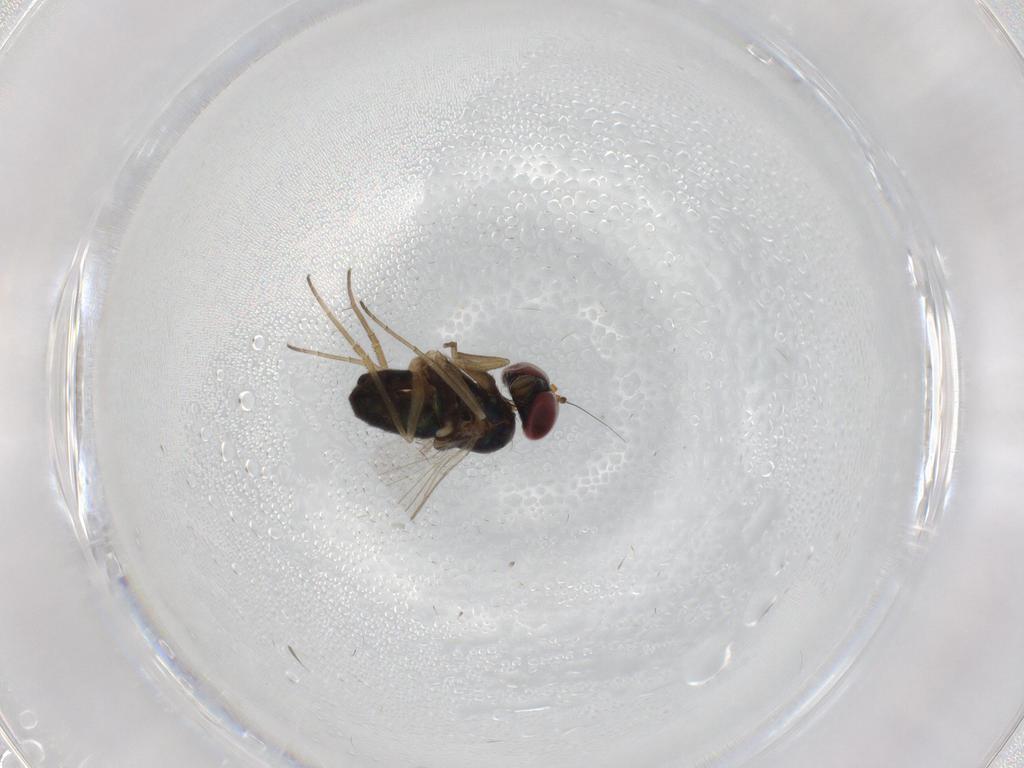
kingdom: Animalia
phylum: Arthropoda
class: Insecta
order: Diptera
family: Dolichopodidae
